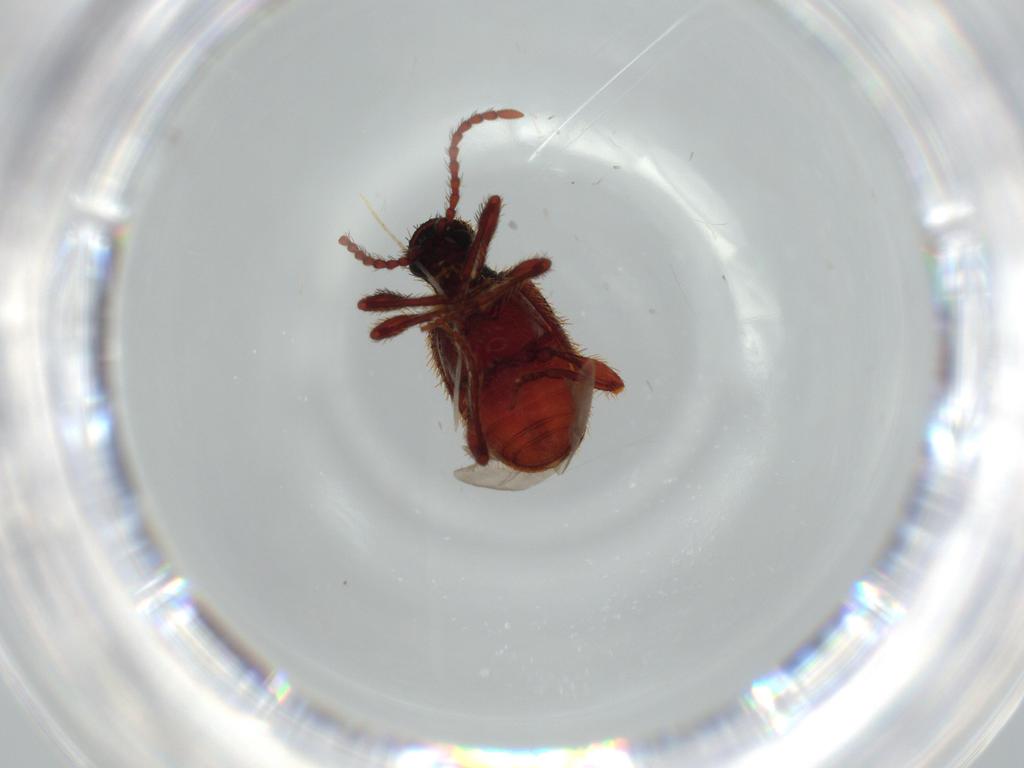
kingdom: Animalia
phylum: Arthropoda
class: Insecta
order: Coleoptera
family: Ptinidae
